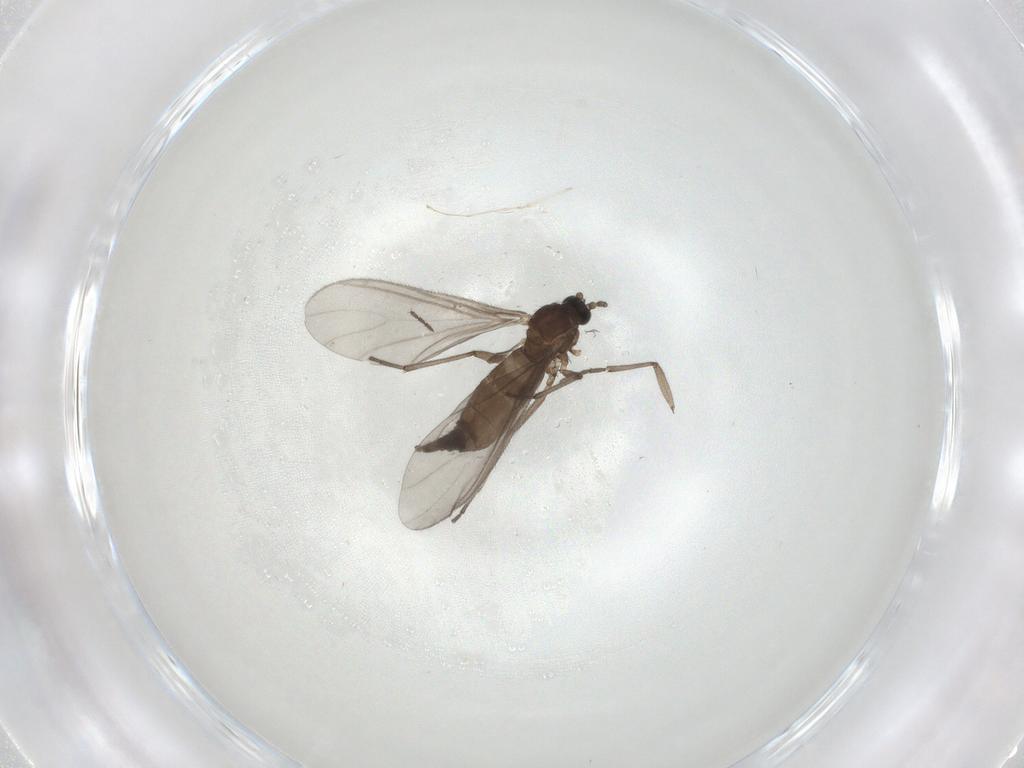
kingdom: Animalia
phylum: Arthropoda
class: Insecta
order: Diptera
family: Sciaridae
